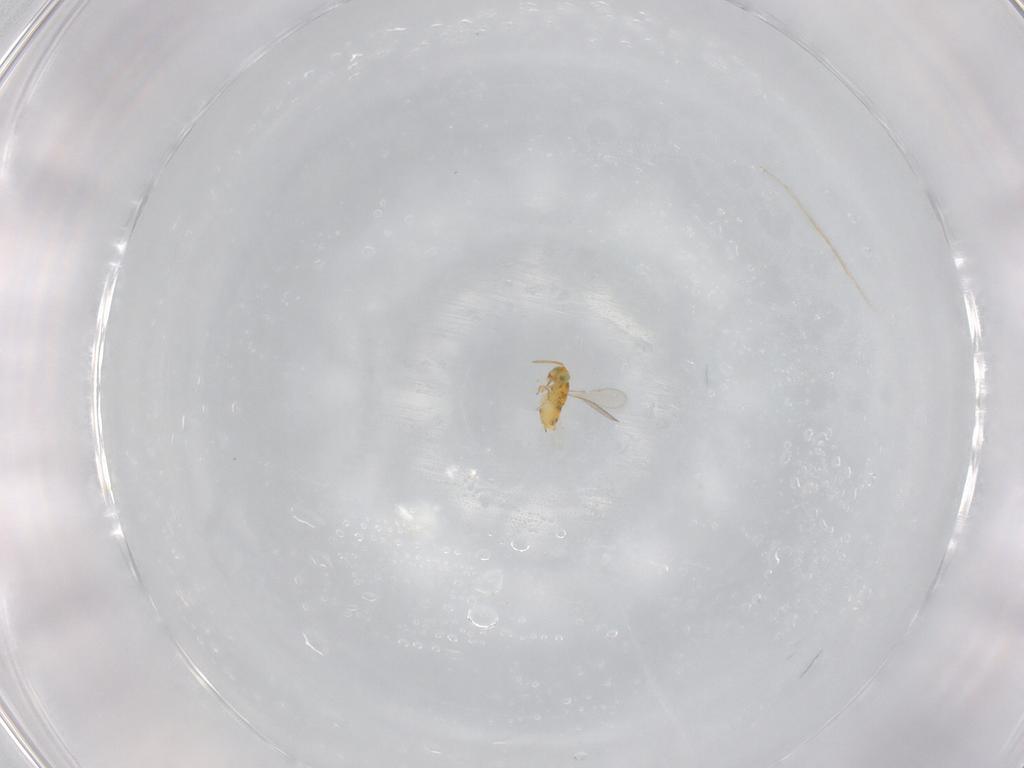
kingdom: Animalia
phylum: Arthropoda
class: Insecta
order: Hymenoptera
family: Aphelinidae
